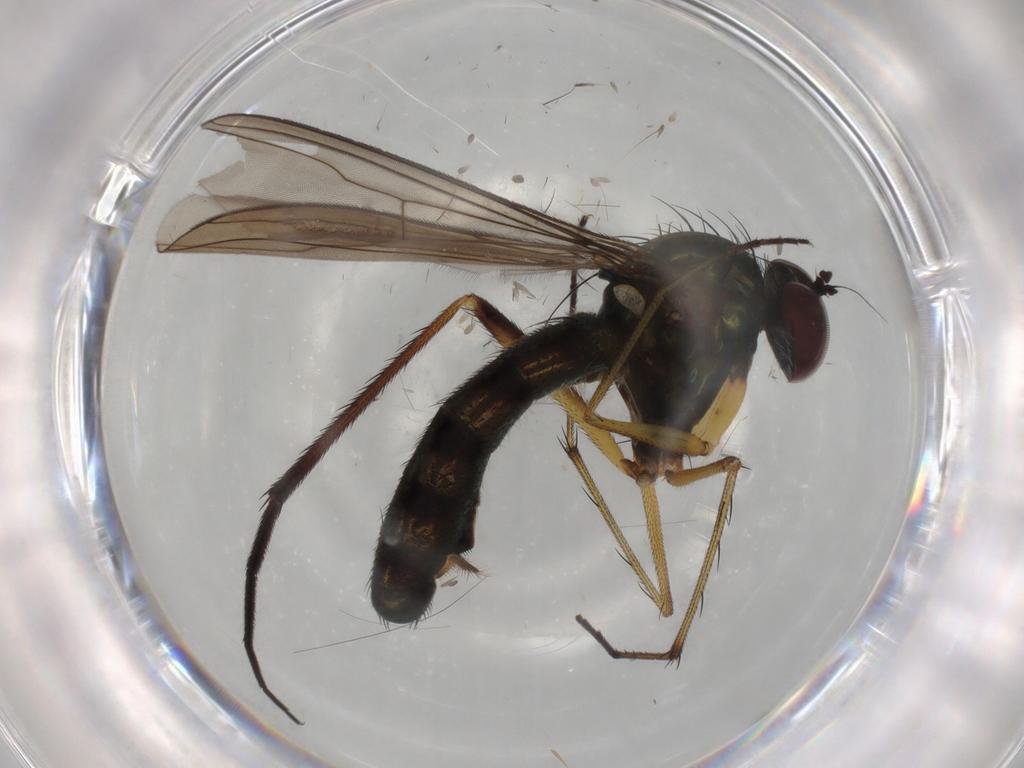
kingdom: Animalia
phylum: Arthropoda
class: Insecta
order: Diptera
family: Dolichopodidae
